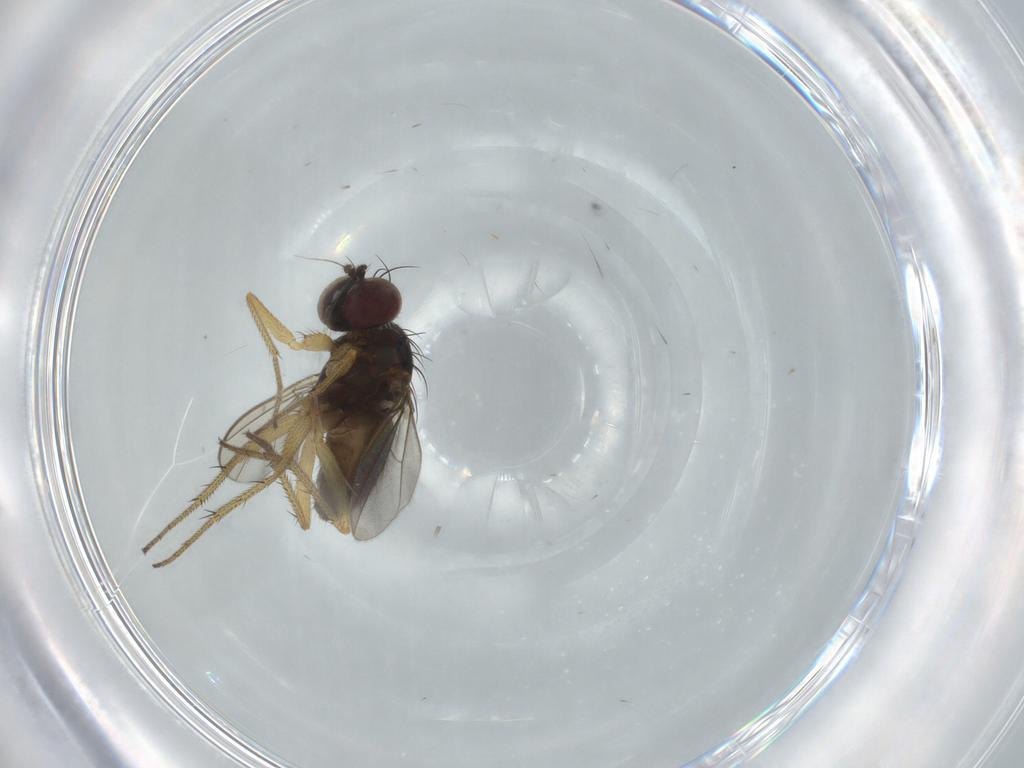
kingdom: Animalia
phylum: Arthropoda
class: Insecta
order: Diptera
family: Dolichopodidae
